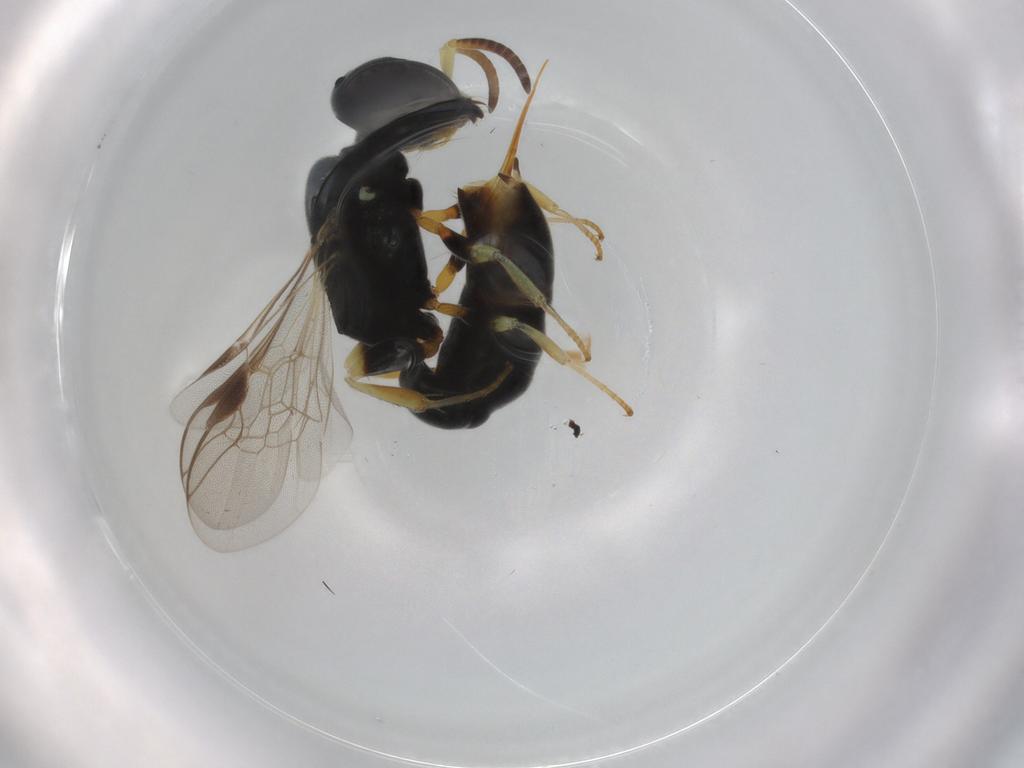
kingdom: Animalia
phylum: Arthropoda
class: Insecta
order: Hymenoptera
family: Pemphredonidae
